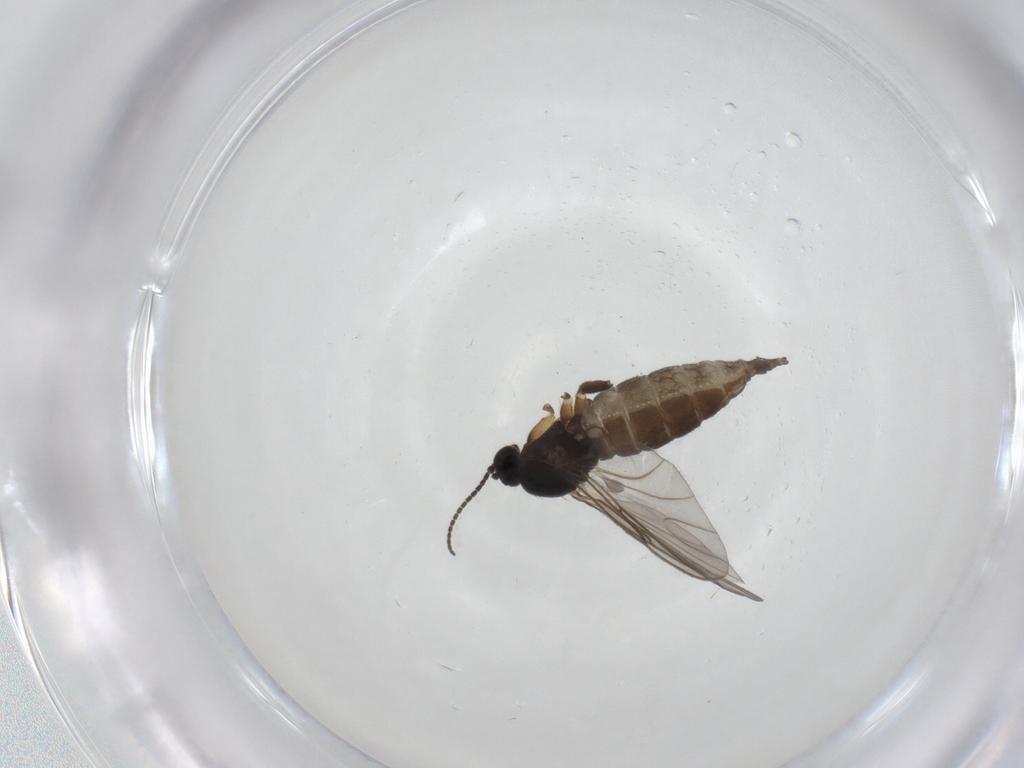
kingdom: Animalia
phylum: Arthropoda
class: Insecta
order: Diptera
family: Sciaridae
